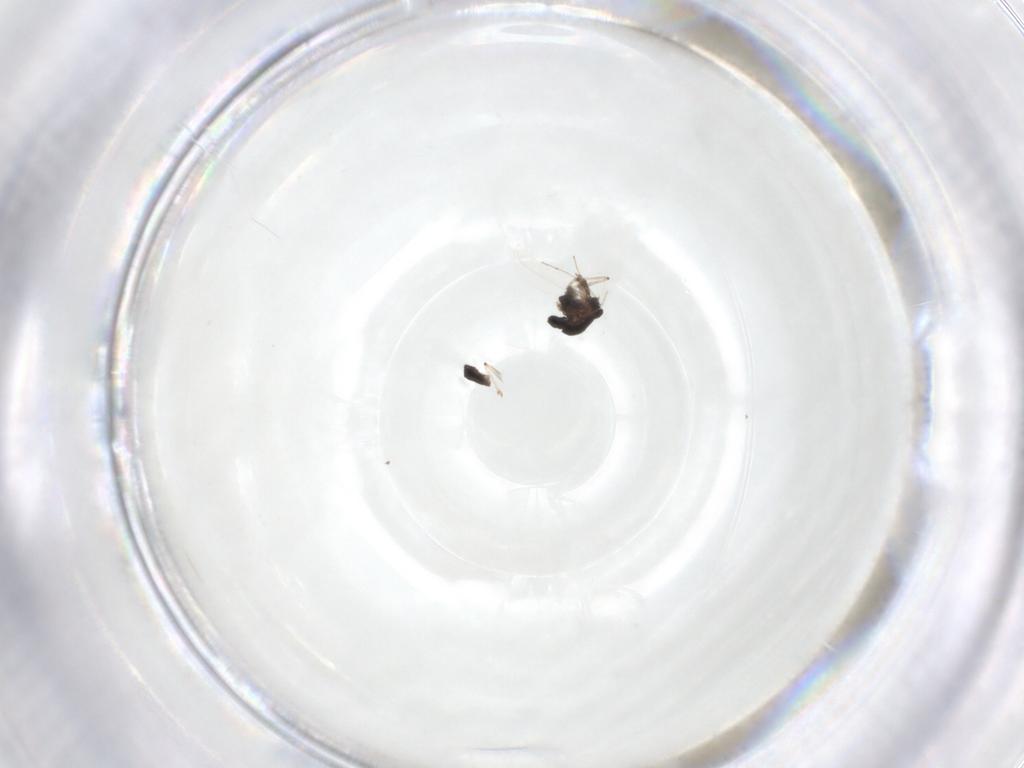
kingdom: Animalia
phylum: Arthropoda
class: Insecta
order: Diptera
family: Chironomidae
